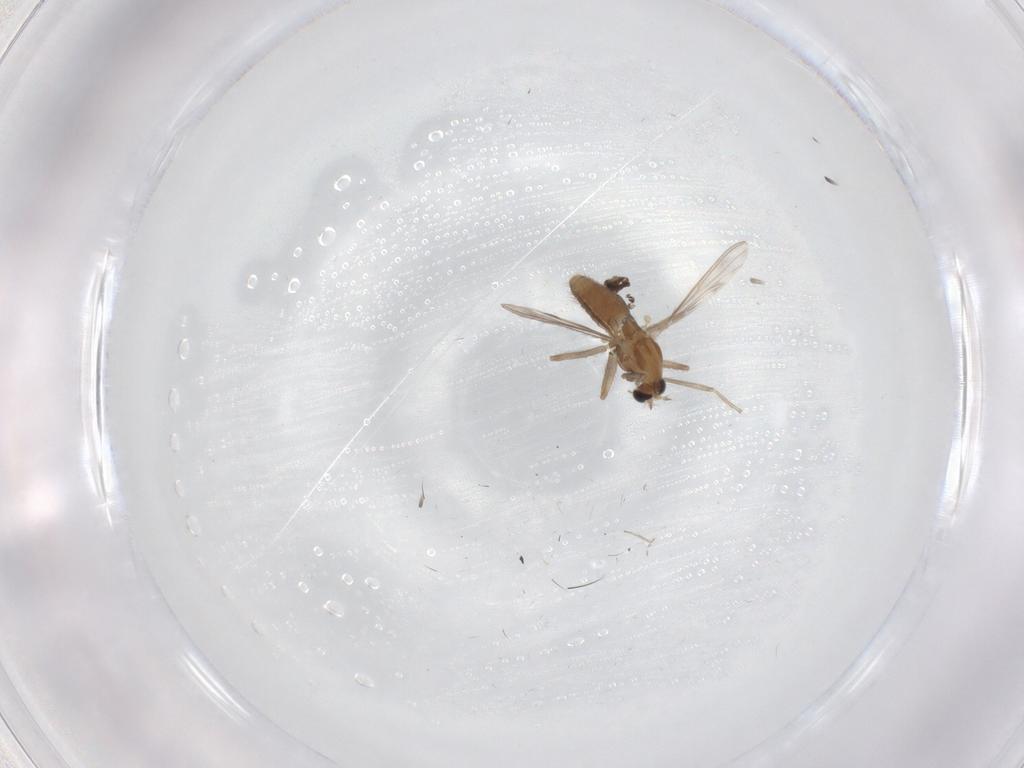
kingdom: Animalia
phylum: Arthropoda
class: Insecta
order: Diptera
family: Chironomidae
